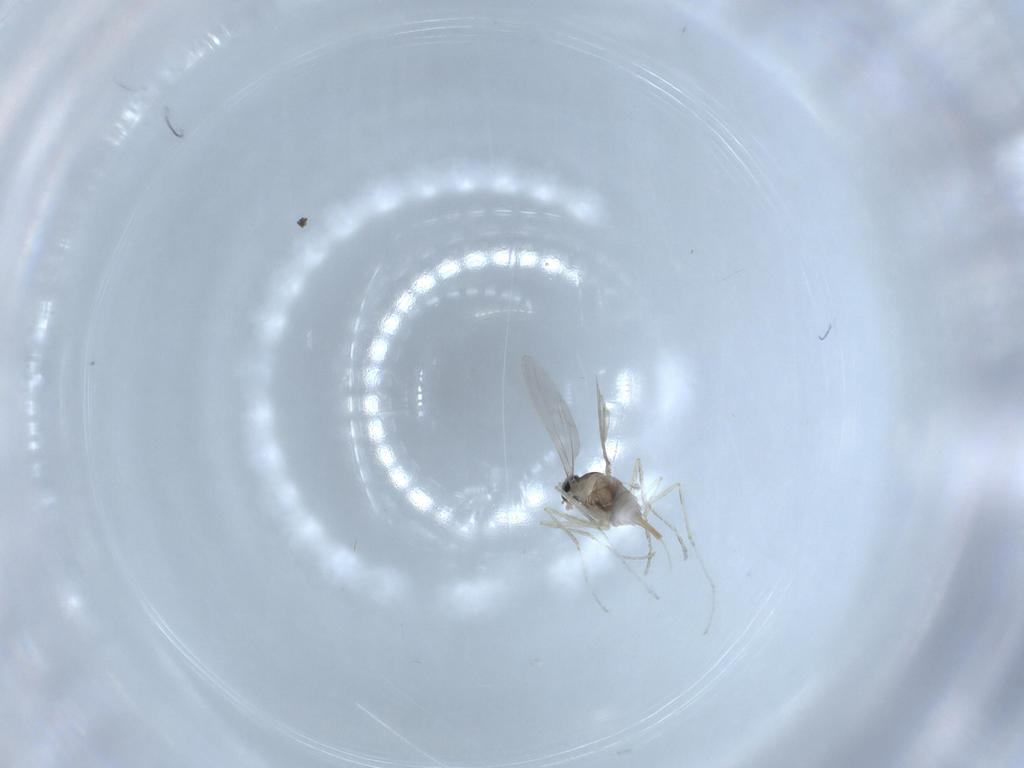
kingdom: Animalia
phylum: Arthropoda
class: Insecta
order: Diptera
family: Cecidomyiidae
